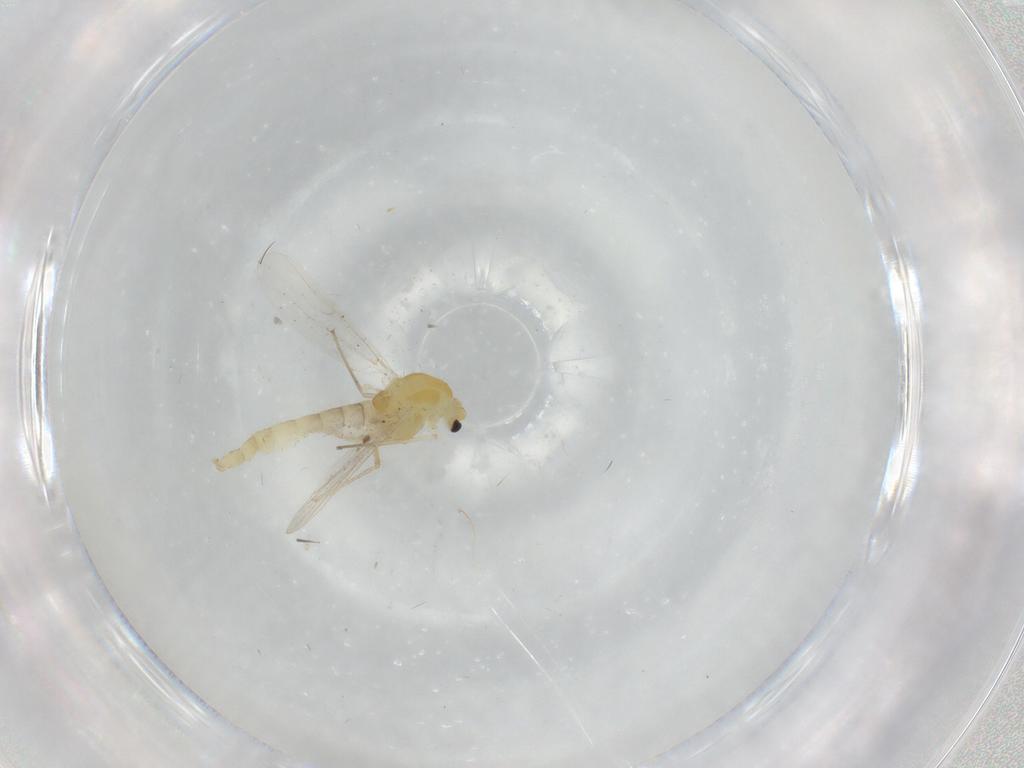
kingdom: Animalia
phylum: Arthropoda
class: Insecta
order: Diptera
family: Chironomidae
